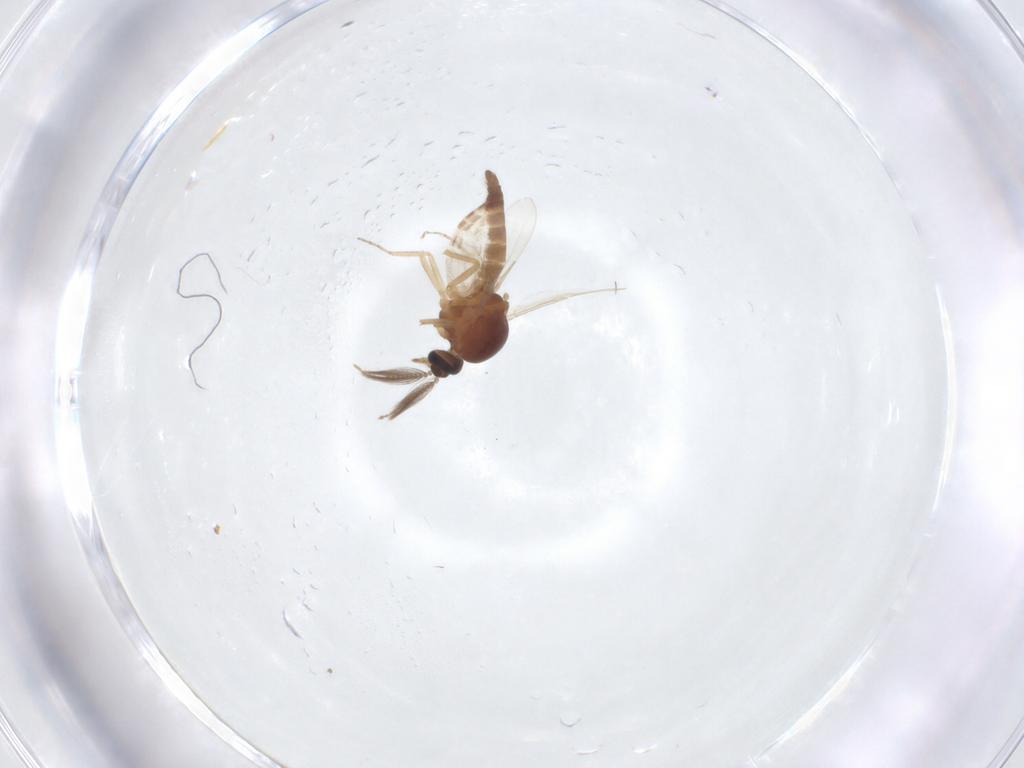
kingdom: Animalia
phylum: Arthropoda
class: Insecta
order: Diptera
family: Ceratopogonidae
